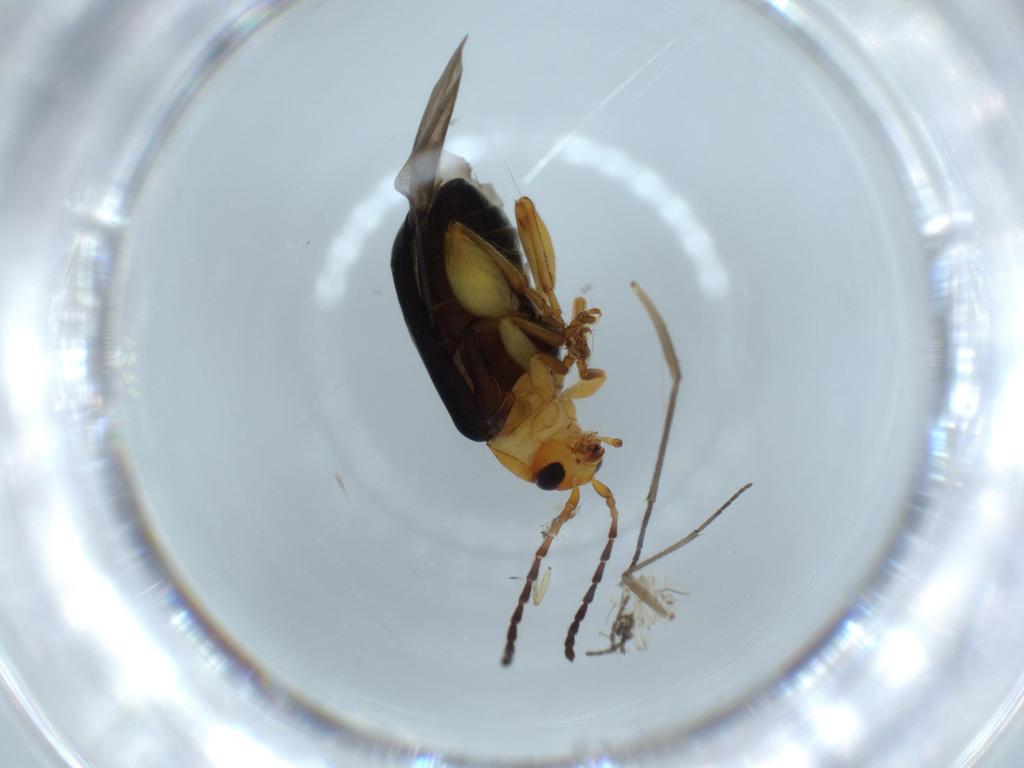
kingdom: Animalia
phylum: Arthropoda
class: Insecta
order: Coleoptera
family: Chrysomelidae
